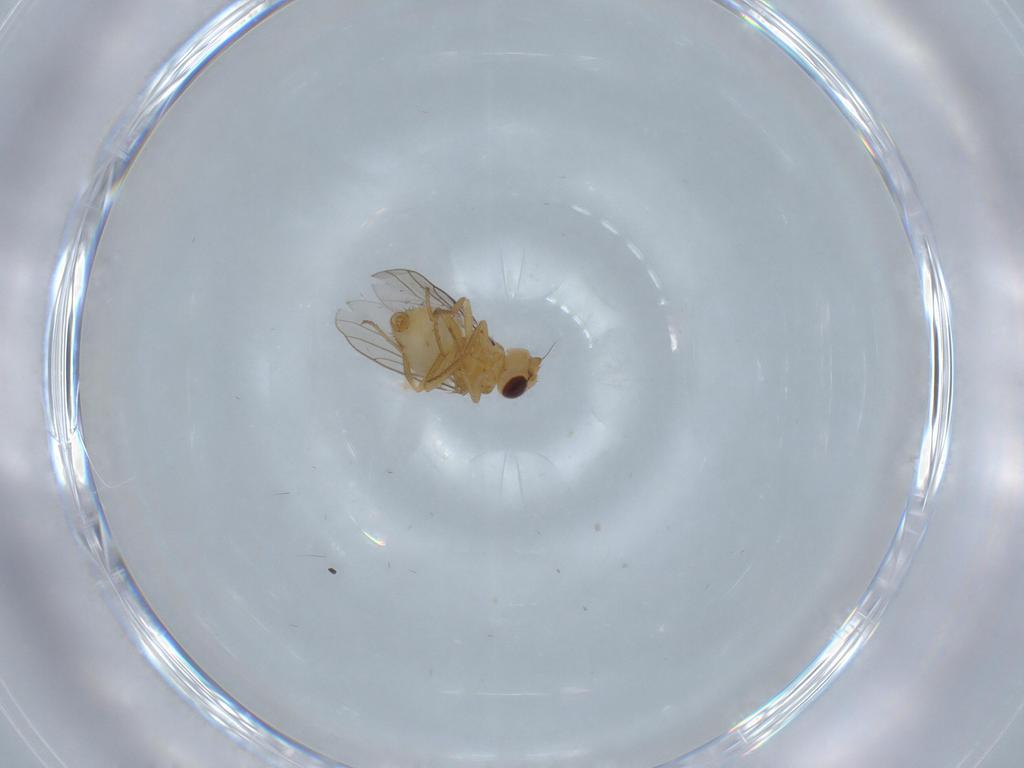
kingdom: Animalia
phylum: Arthropoda
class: Insecta
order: Diptera
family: Chloropidae
